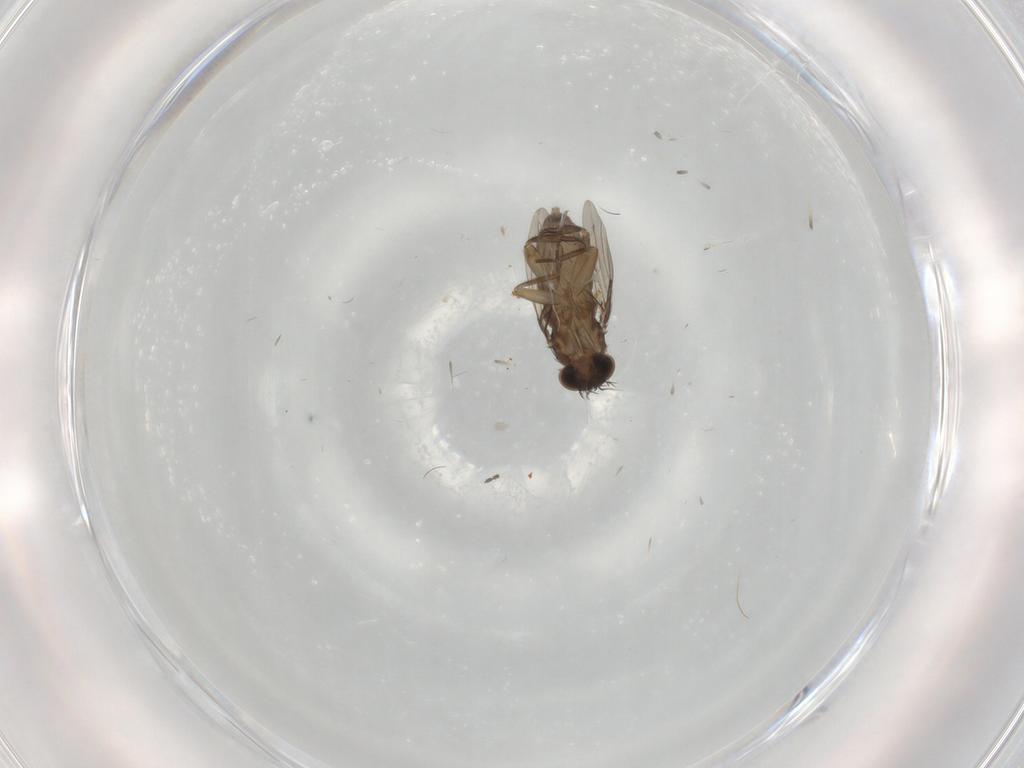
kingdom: Animalia
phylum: Arthropoda
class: Insecta
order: Diptera
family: Phoridae
